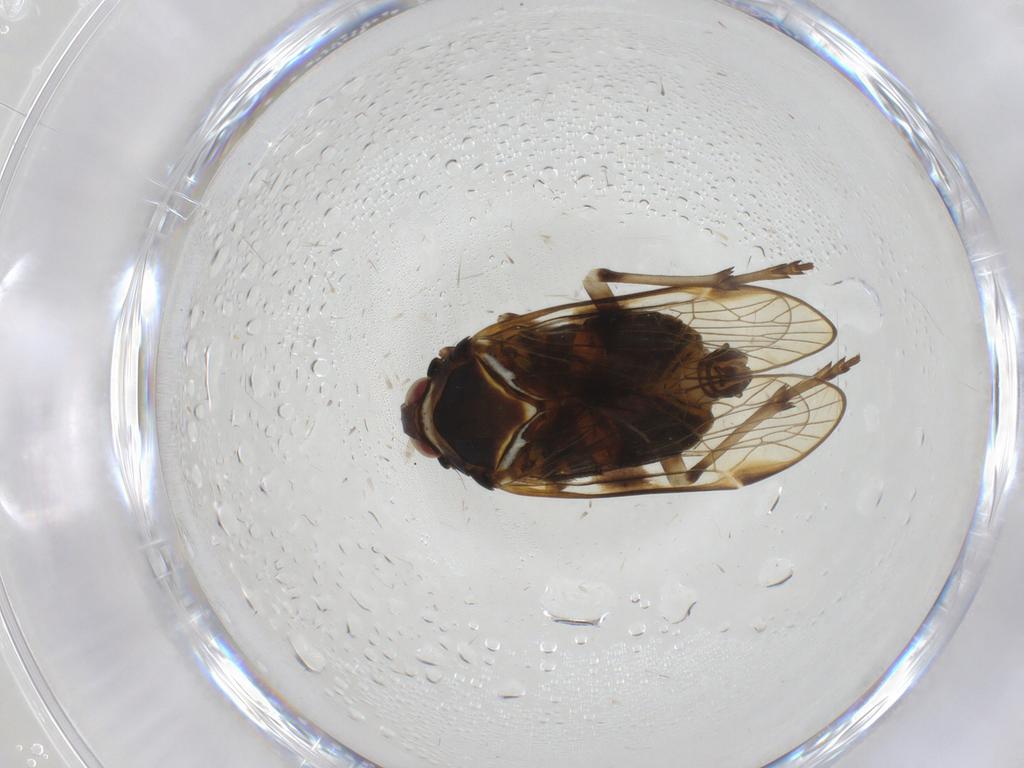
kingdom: Animalia
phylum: Arthropoda
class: Insecta
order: Hemiptera
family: Kinnaridae
